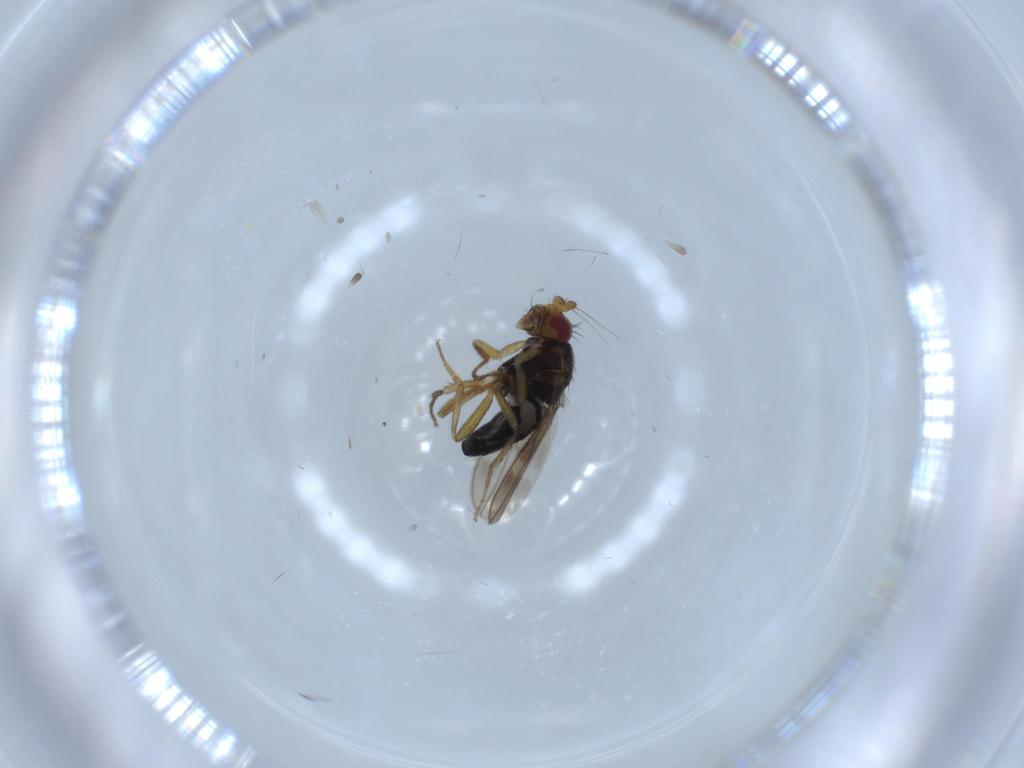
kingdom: Animalia
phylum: Arthropoda
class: Insecta
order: Diptera
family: Sphaeroceridae
